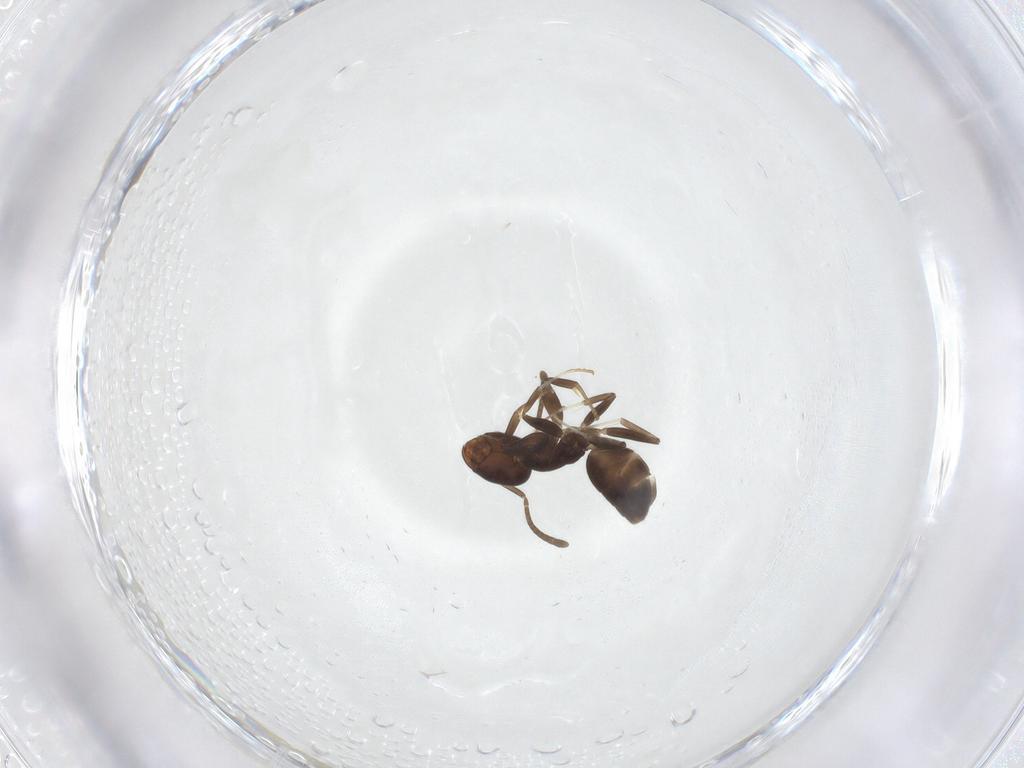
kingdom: Animalia
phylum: Arthropoda
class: Insecta
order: Hymenoptera
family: Formicidae
